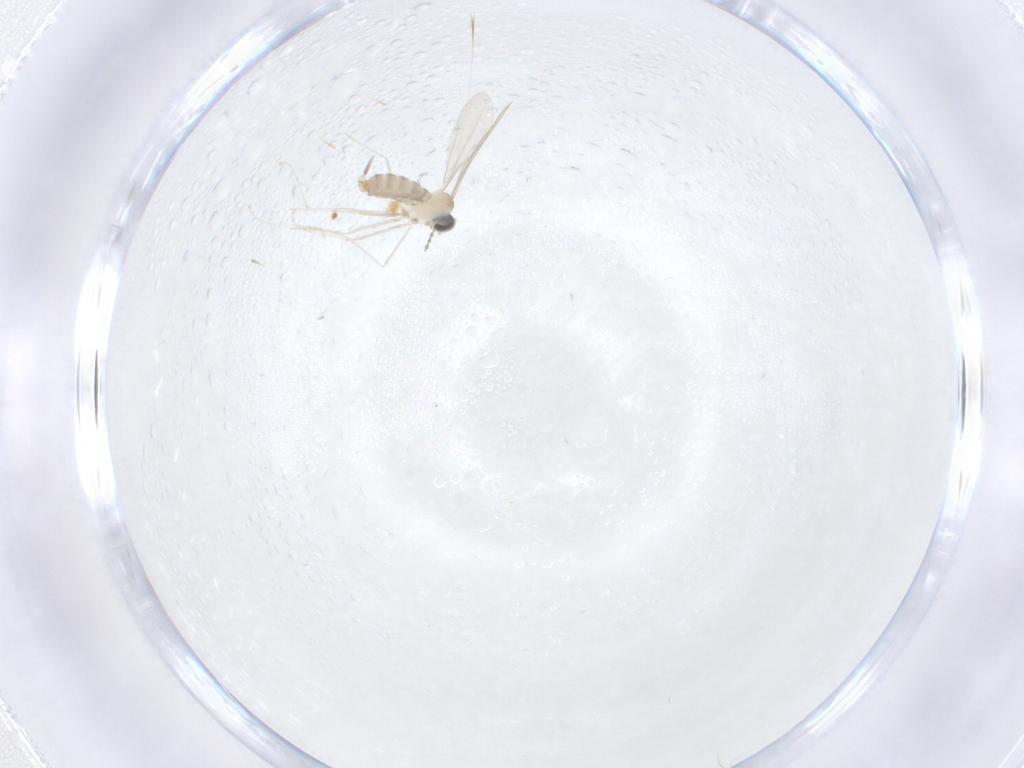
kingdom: Animalia
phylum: Arthropoda
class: Insecta
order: Diptera
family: Cecidomyiidae
